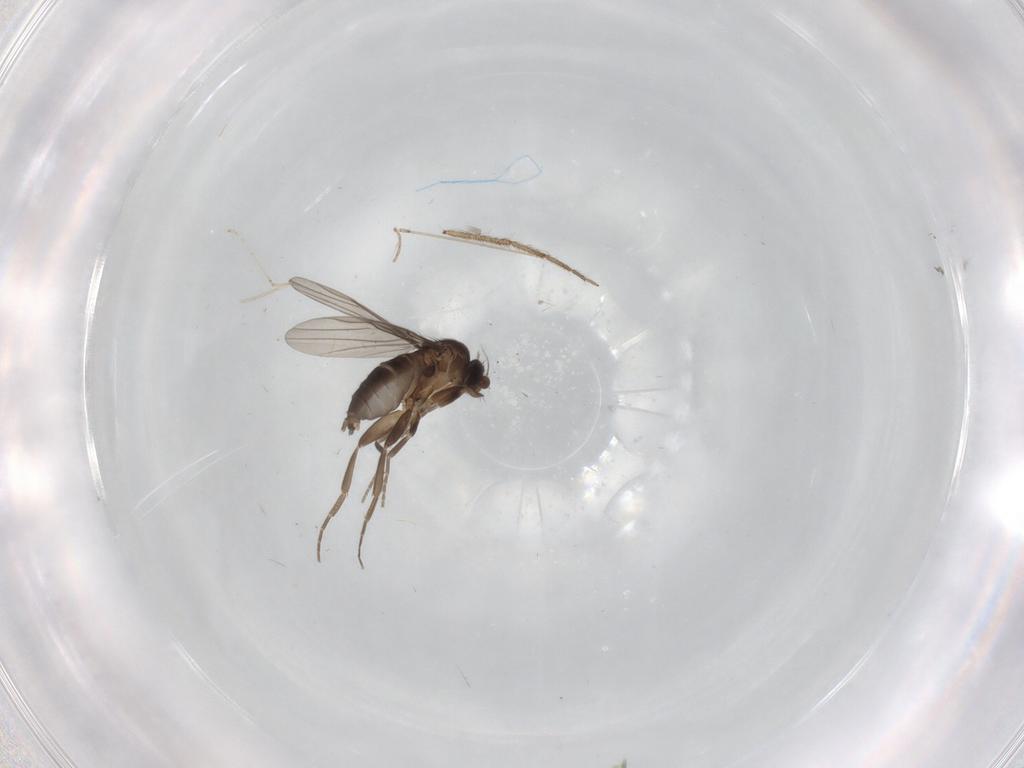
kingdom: Animalia
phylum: Arthropoda
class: Insecta
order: Diptera
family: Chironomidae
